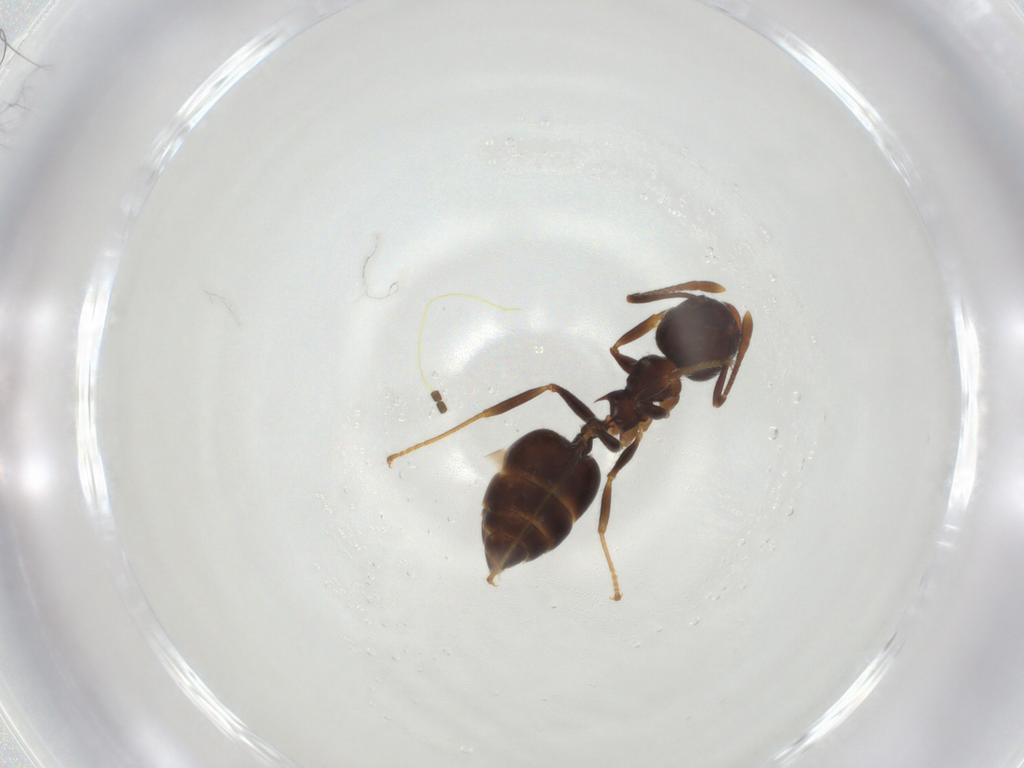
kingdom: Animalia
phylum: Arthropoda
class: Insecta
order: Hymenoptera
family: Formicidae
